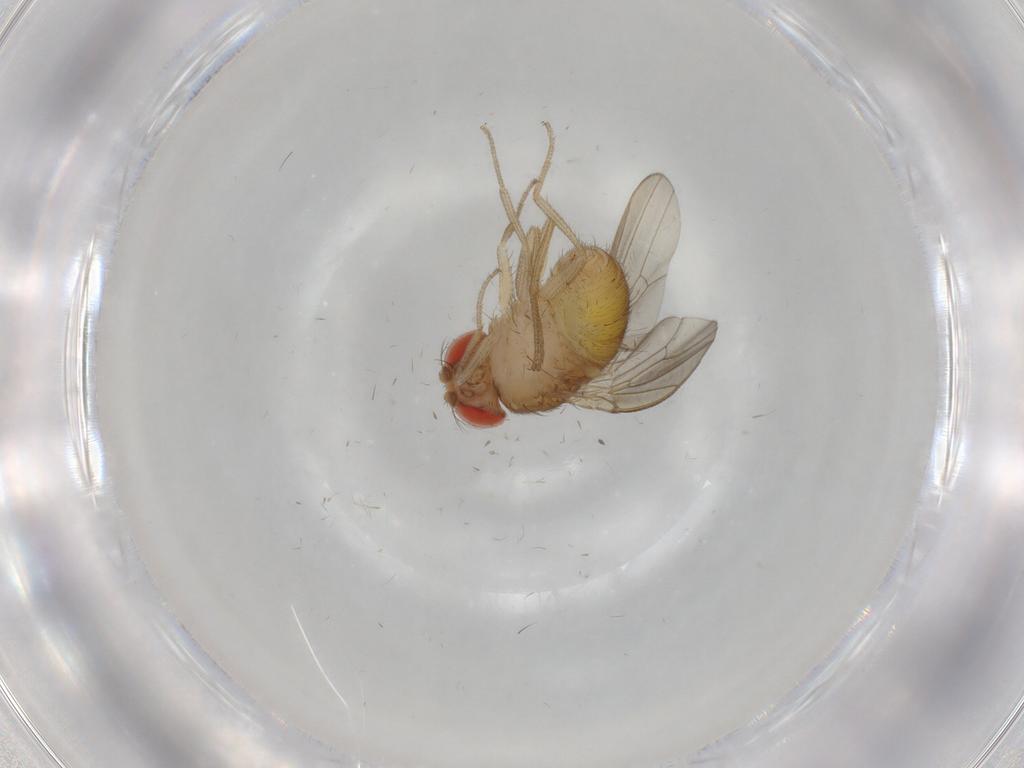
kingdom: Animalia
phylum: Arthropoda
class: Insecta
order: Diptera
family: Drosophilidae
